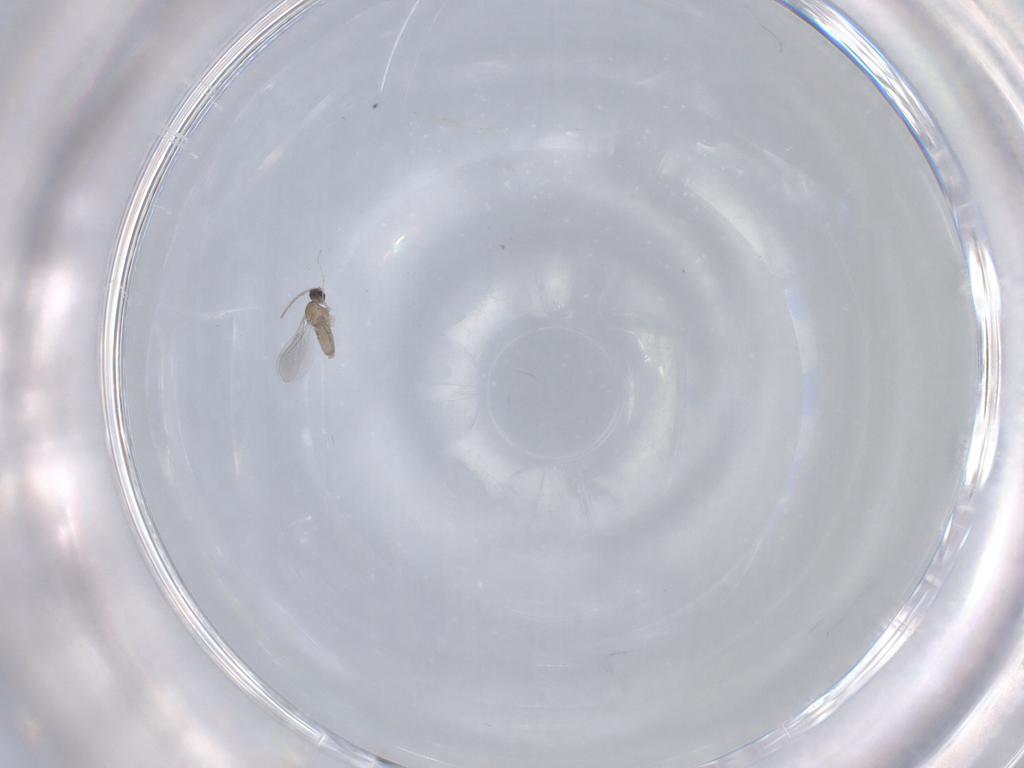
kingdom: Animalia
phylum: Arthropoda
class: Insecta
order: Diptera
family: Cecidomyiidae
